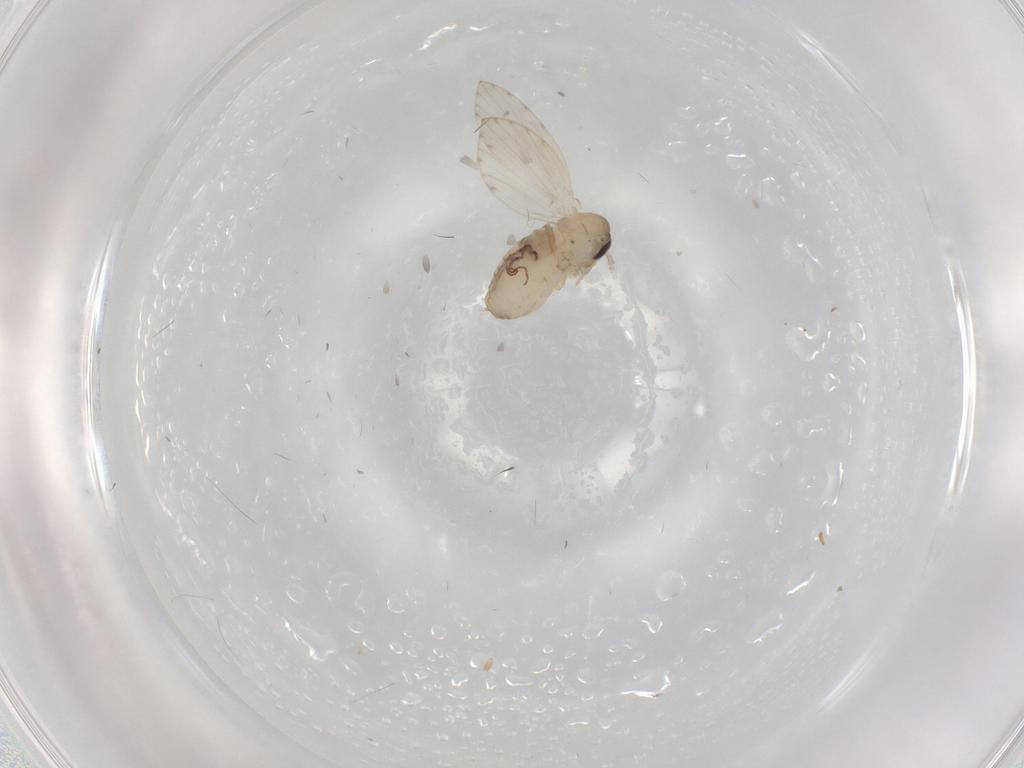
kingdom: Animalia
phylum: Arthropoda
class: Insecta
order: Diptera
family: Psychodidae
